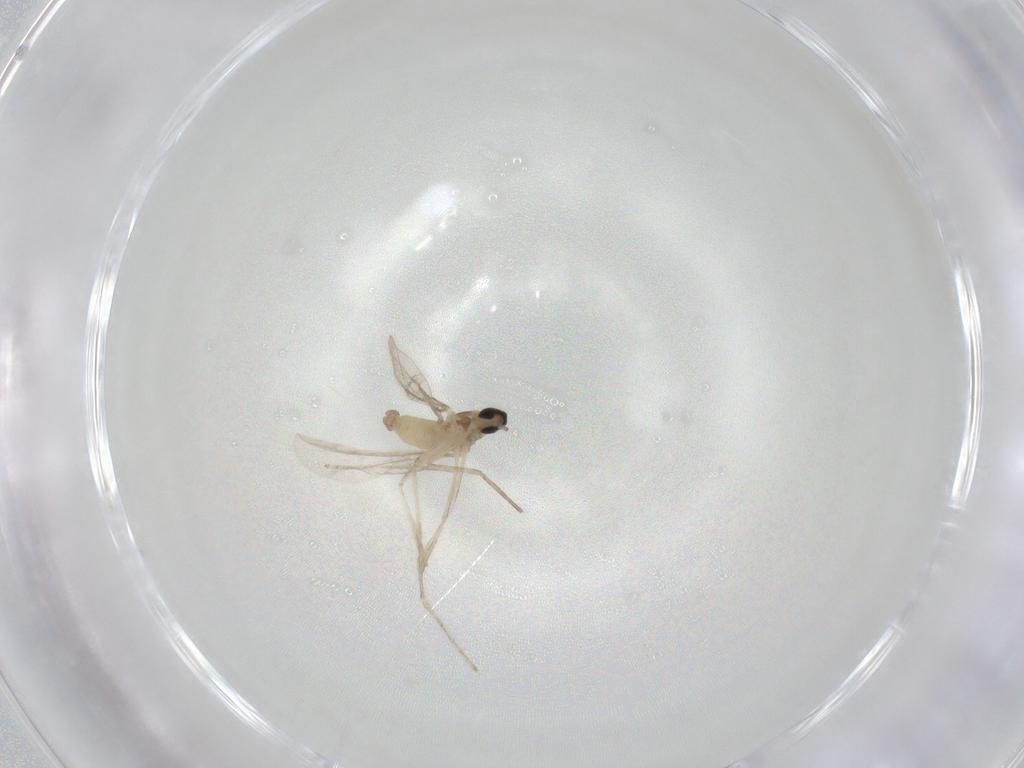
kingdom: Animalia
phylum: Arthropoda
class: Insecta
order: Diptera
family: Cecidomyiidae
